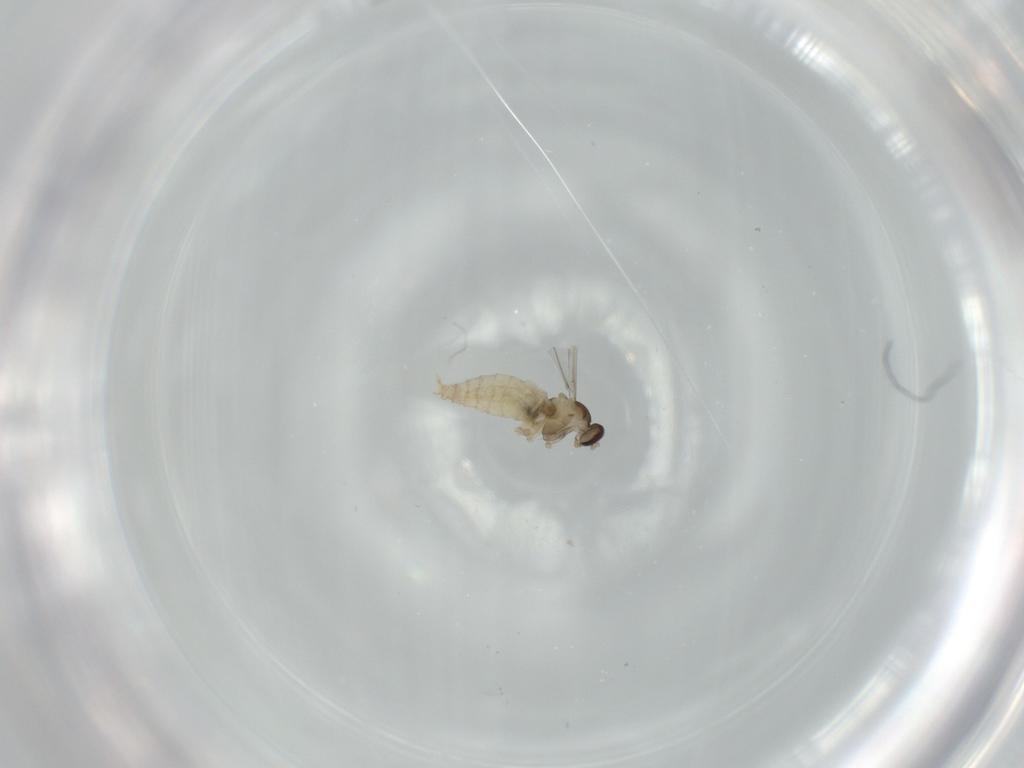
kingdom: Animalia
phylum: Arthropoda
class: Insecta
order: Diptera
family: Cecidomyiidae
